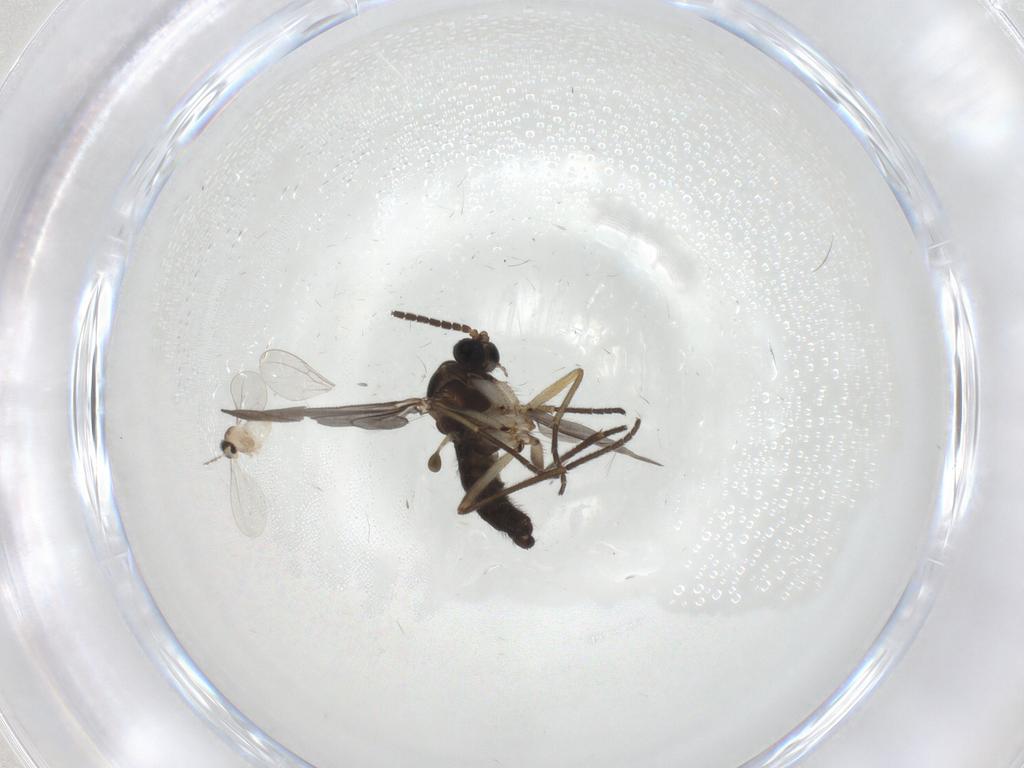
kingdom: Animalia
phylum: Arthropoda
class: Insecta
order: Diptera
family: Sciaridae
